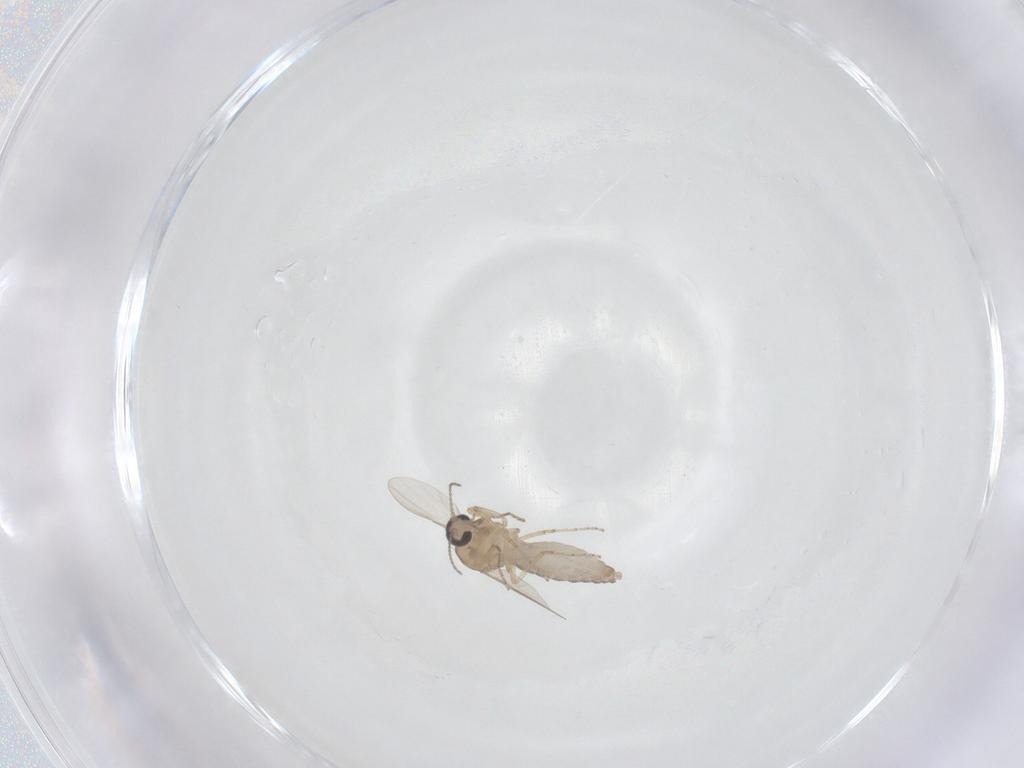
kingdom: Animalia
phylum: Arthropoda
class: Insecta
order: Diptera
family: Ceratopogonidae
